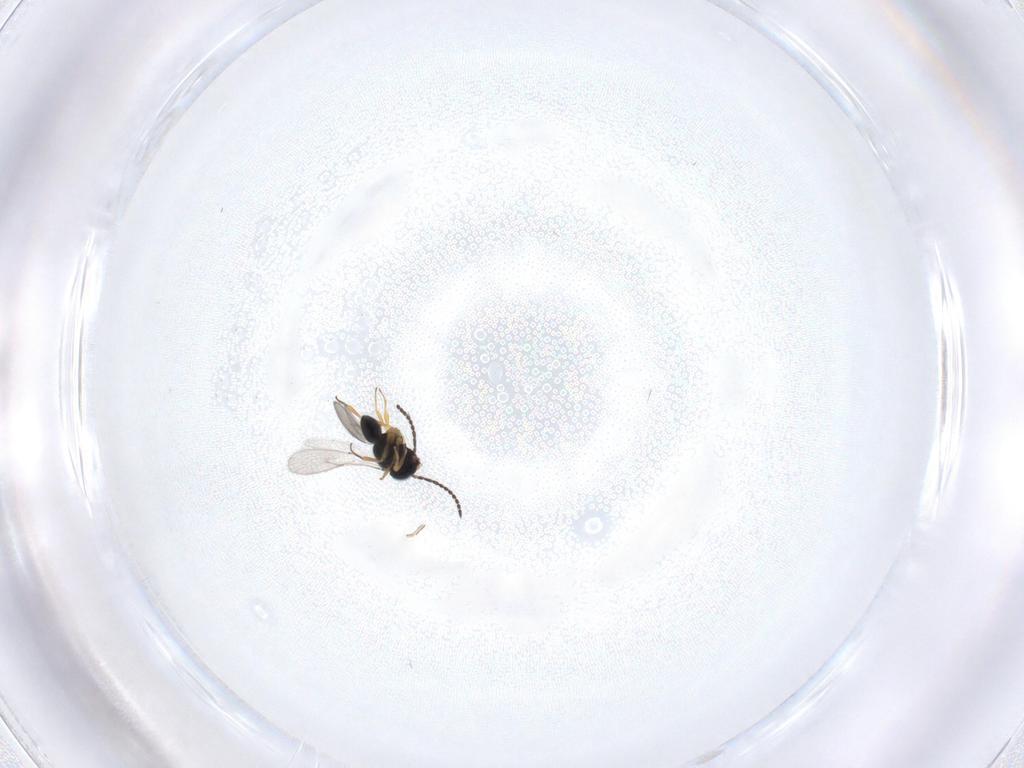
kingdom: Animalia
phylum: Arthropoda
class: Insecta
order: Hymenoptera
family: Scelionidae
